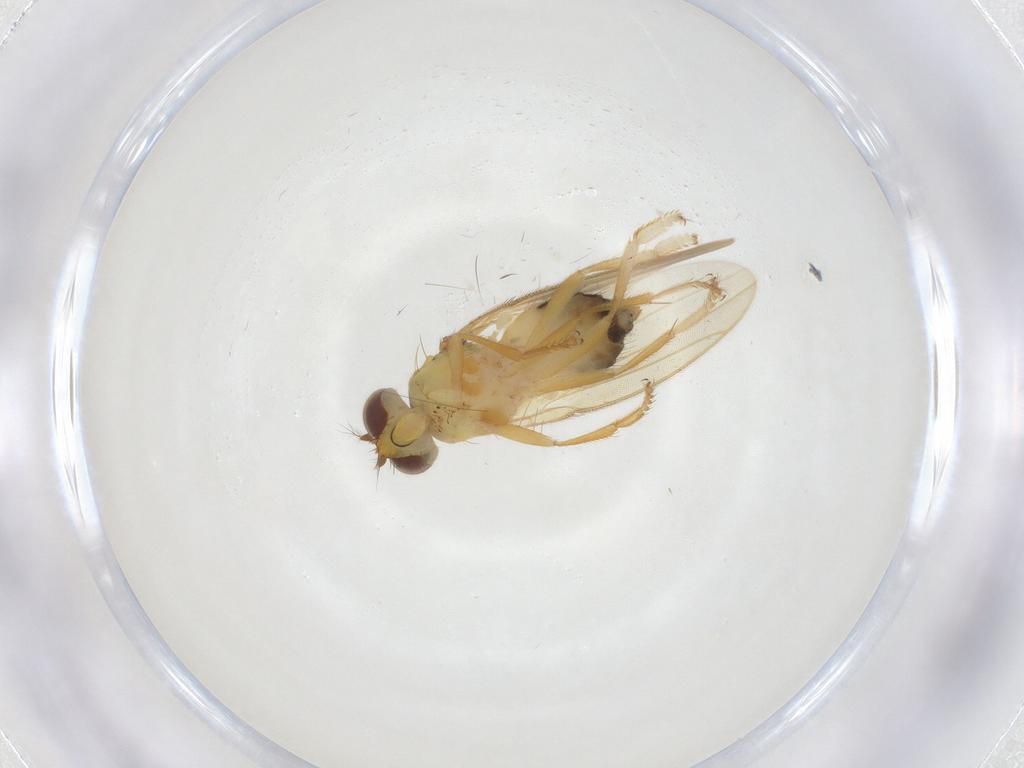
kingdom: Animalia
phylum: Arthropoda
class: Insecta
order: Diptera
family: Periscelididae
